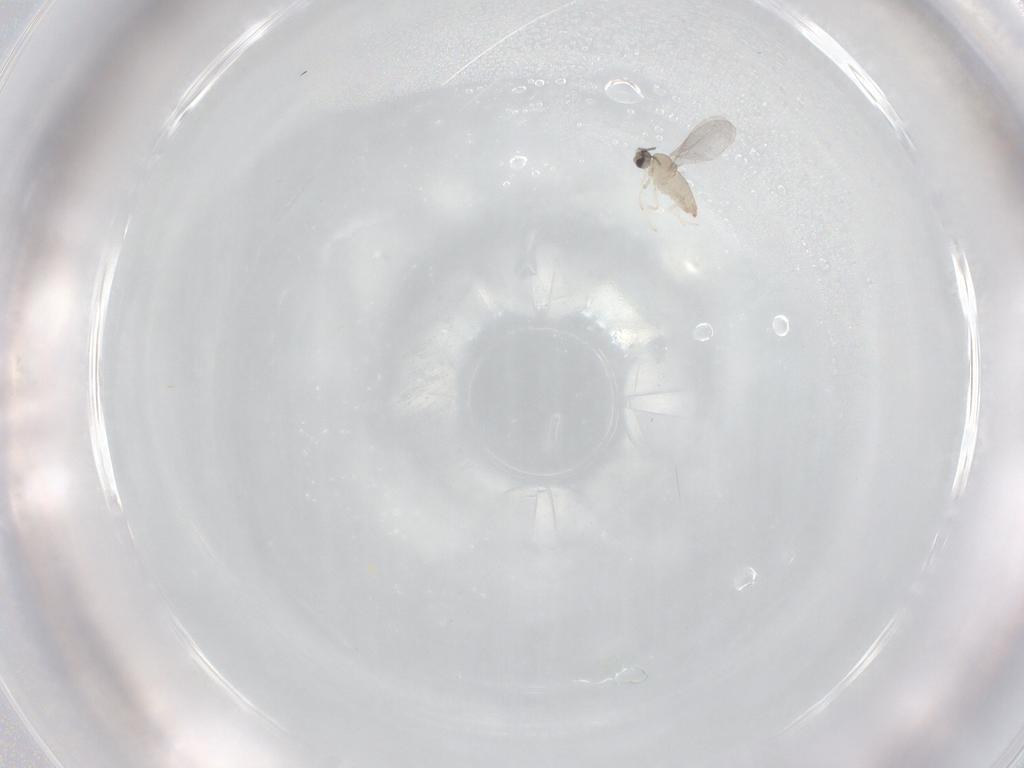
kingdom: Animalia
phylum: Arthropoda
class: Insecta
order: Diptera
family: Cecidomyiidae
